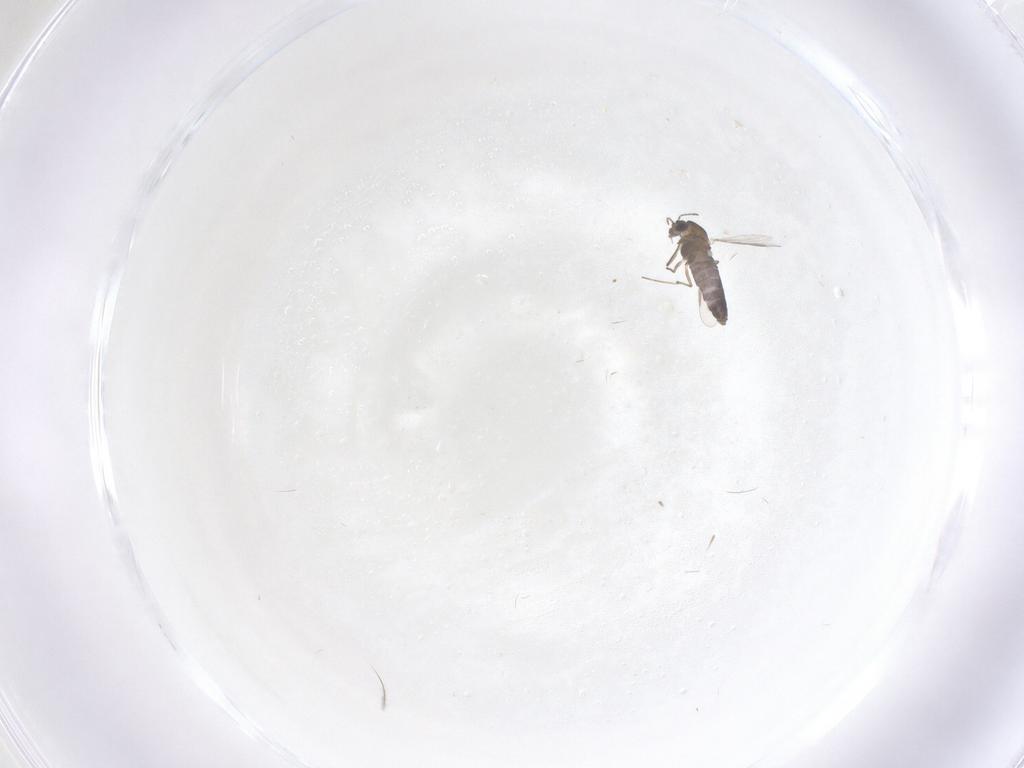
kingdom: Animalia
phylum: Arthropoda
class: Insecta
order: Diptera
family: Chironomidae
